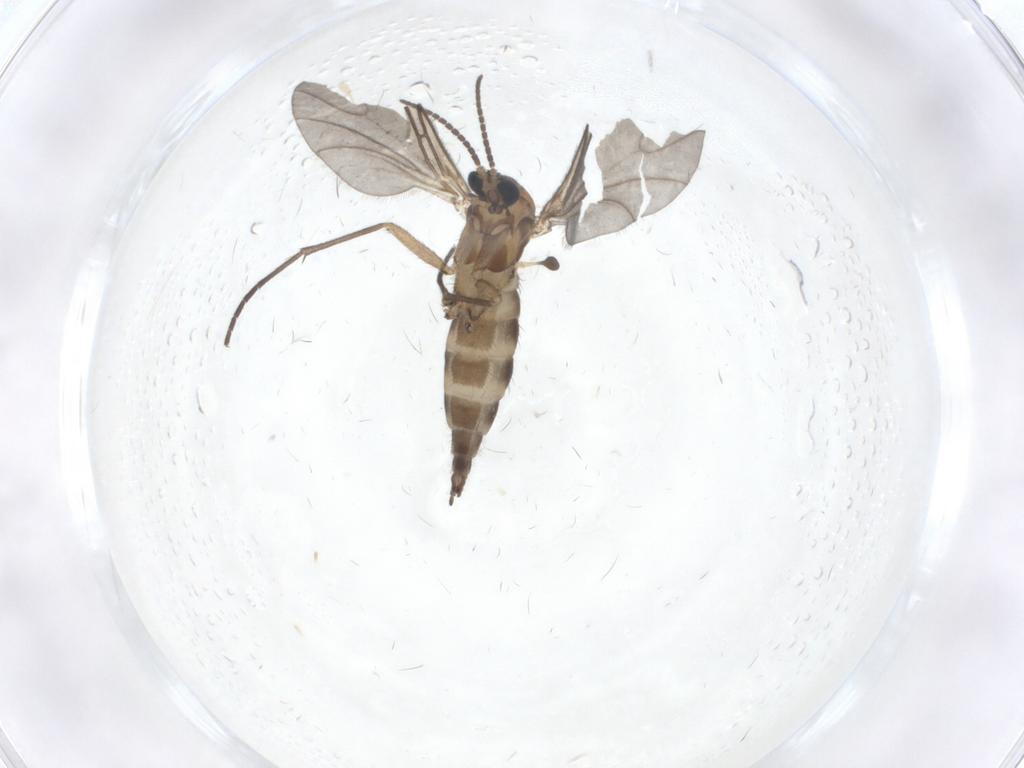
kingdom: Animalia
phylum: Arthropoda
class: Insecta
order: Diptera
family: Sciaridae
